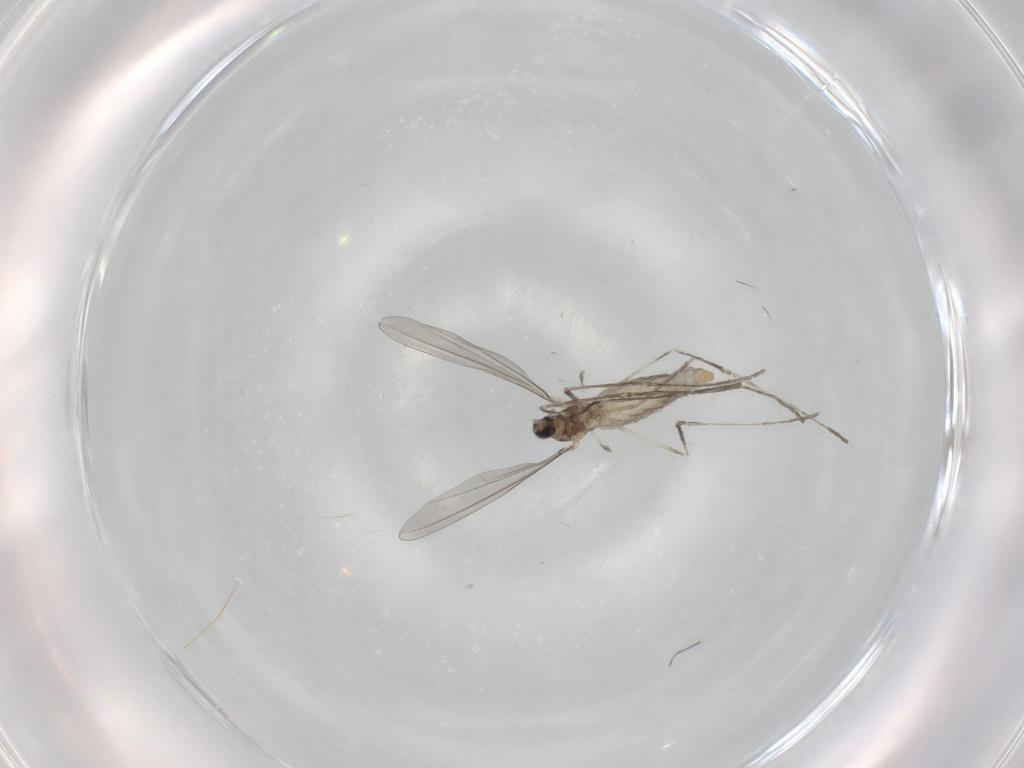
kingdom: Animalia
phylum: Arthropoda
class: Insecta
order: Diptera
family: Cecidomyiidae
